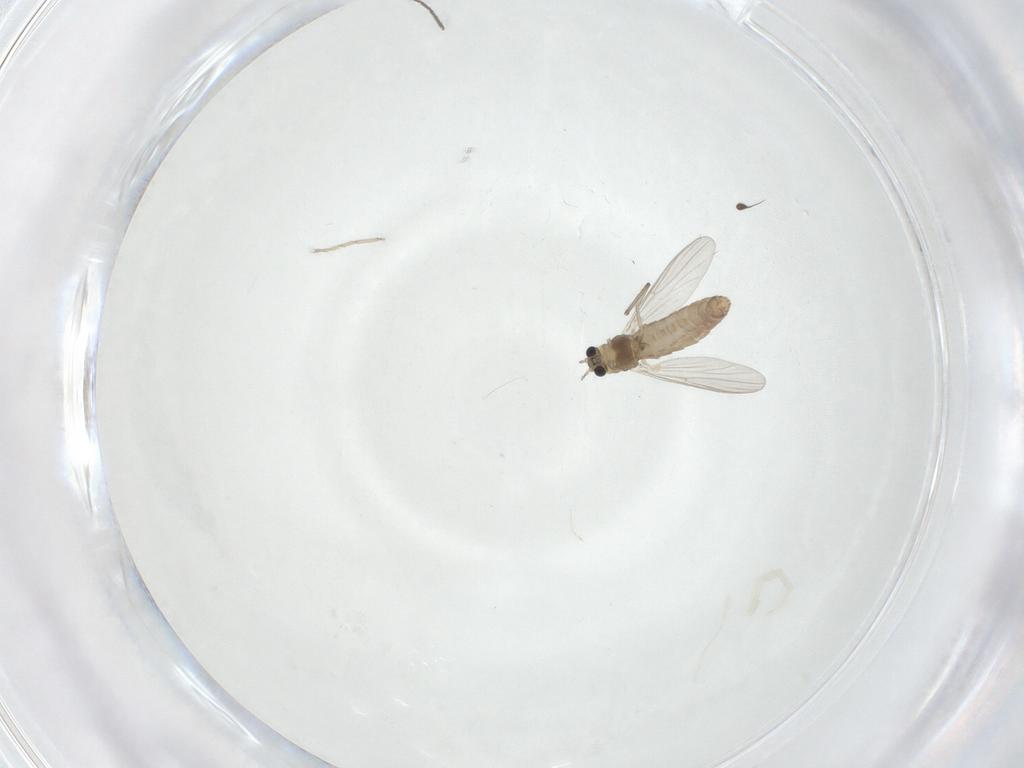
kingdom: Animalia
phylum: Arthropoda
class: Insecta
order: Diptera
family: Chironomidae
